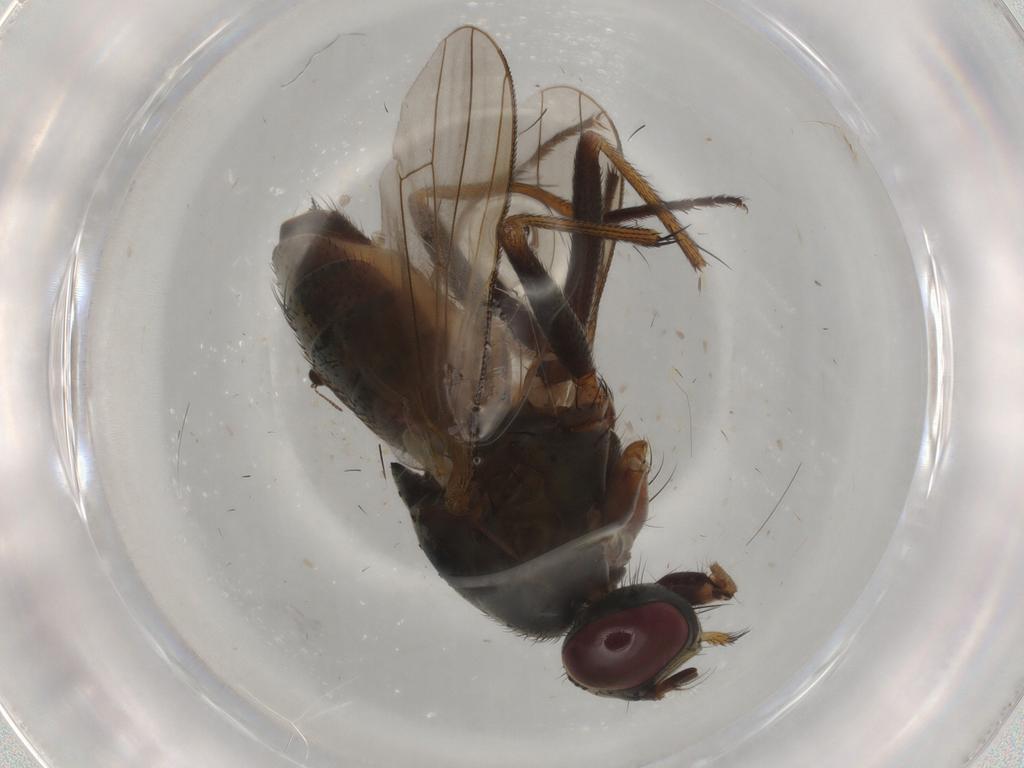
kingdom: Animalia
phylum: Arthropoda
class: Insecta
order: Diptera
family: Muscidae
